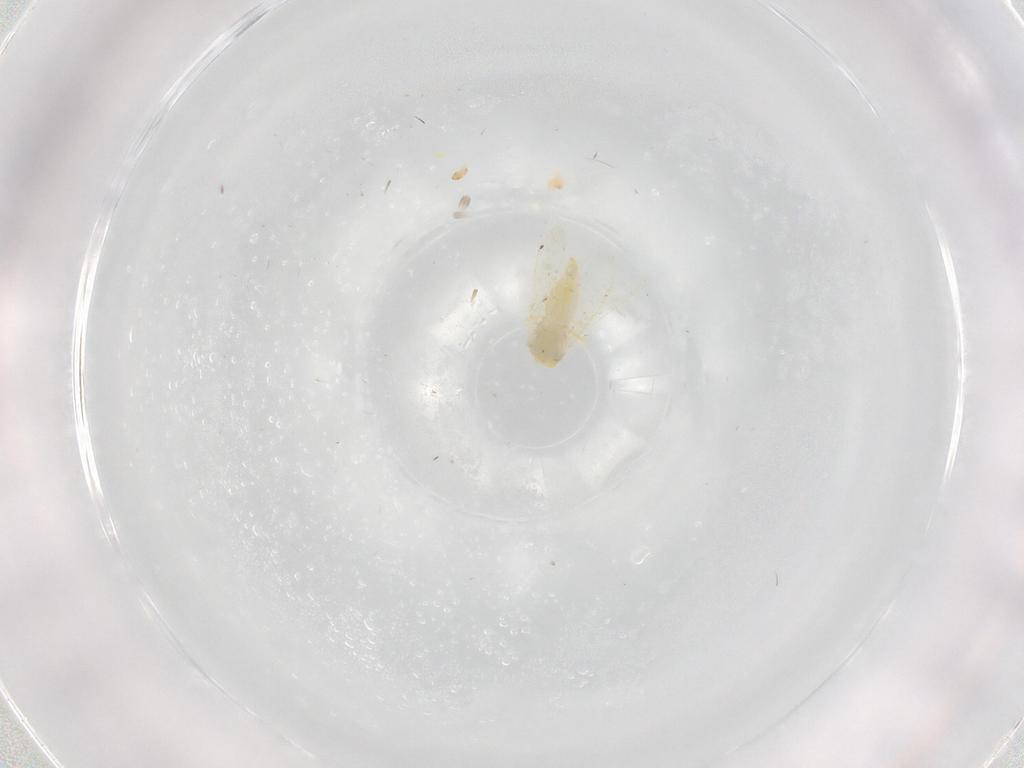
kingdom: Animalia
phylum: Arthropoda
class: Insecta
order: Hemiptera
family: Aleyrodidae
